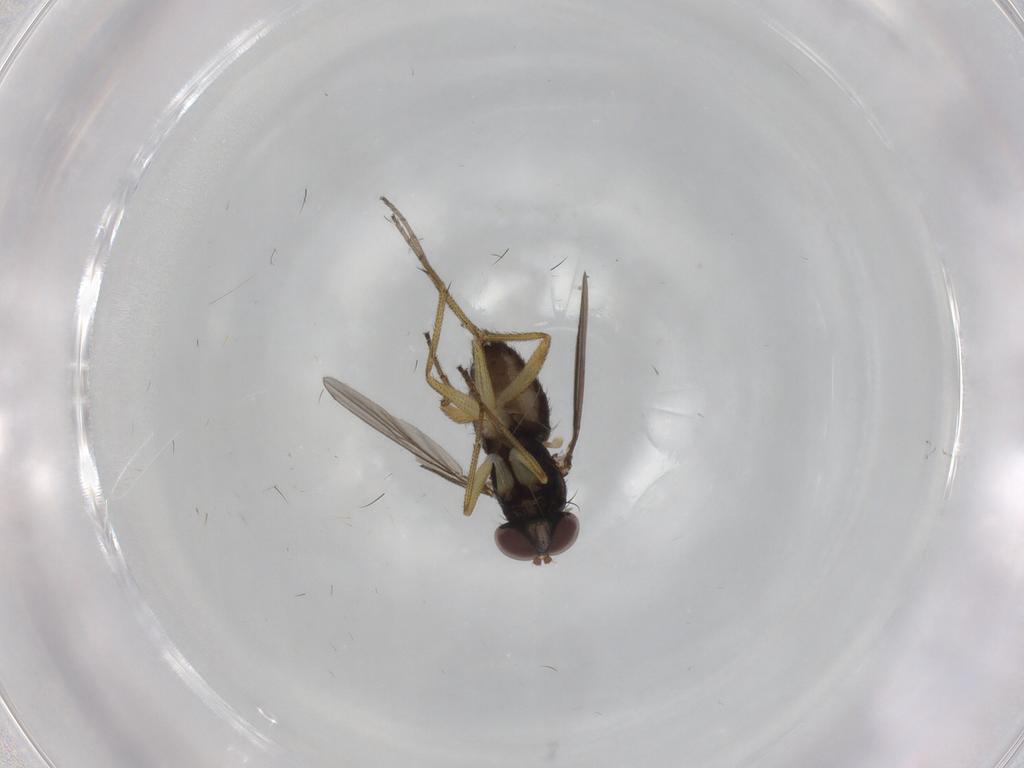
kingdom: Animalia
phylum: Arthropoda
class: Insecta
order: Diptera
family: Dolichopodidae
